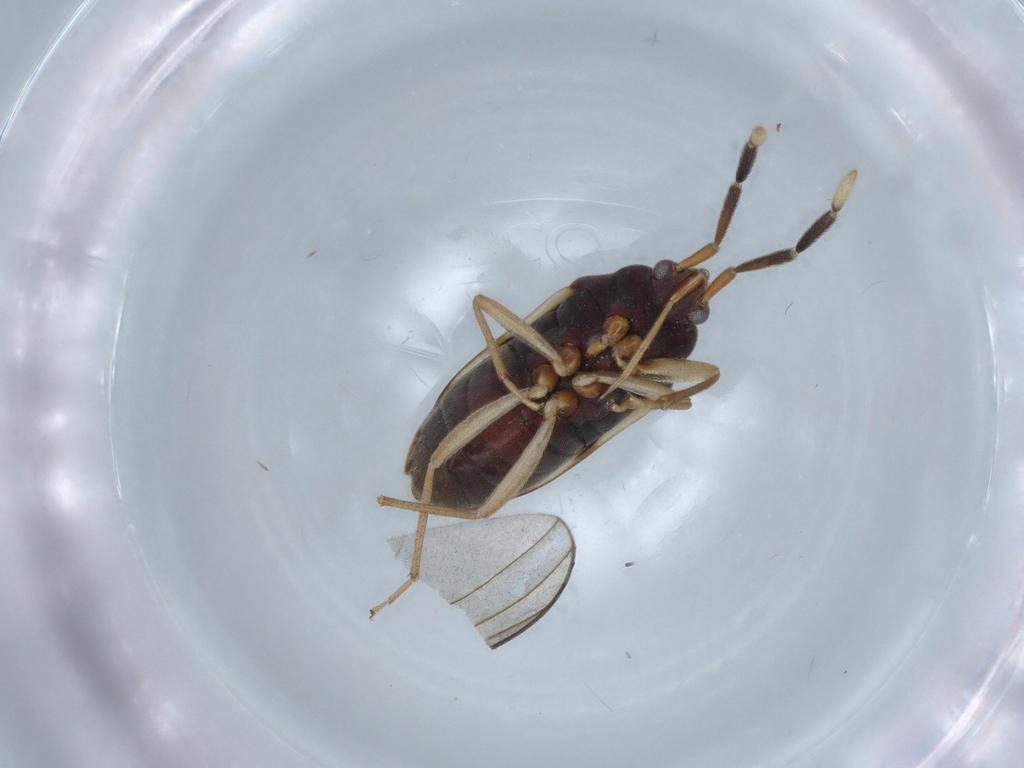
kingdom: Animalia
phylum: Arthropoda
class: Insecta
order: Hemiptera
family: Rhyparochromidae
